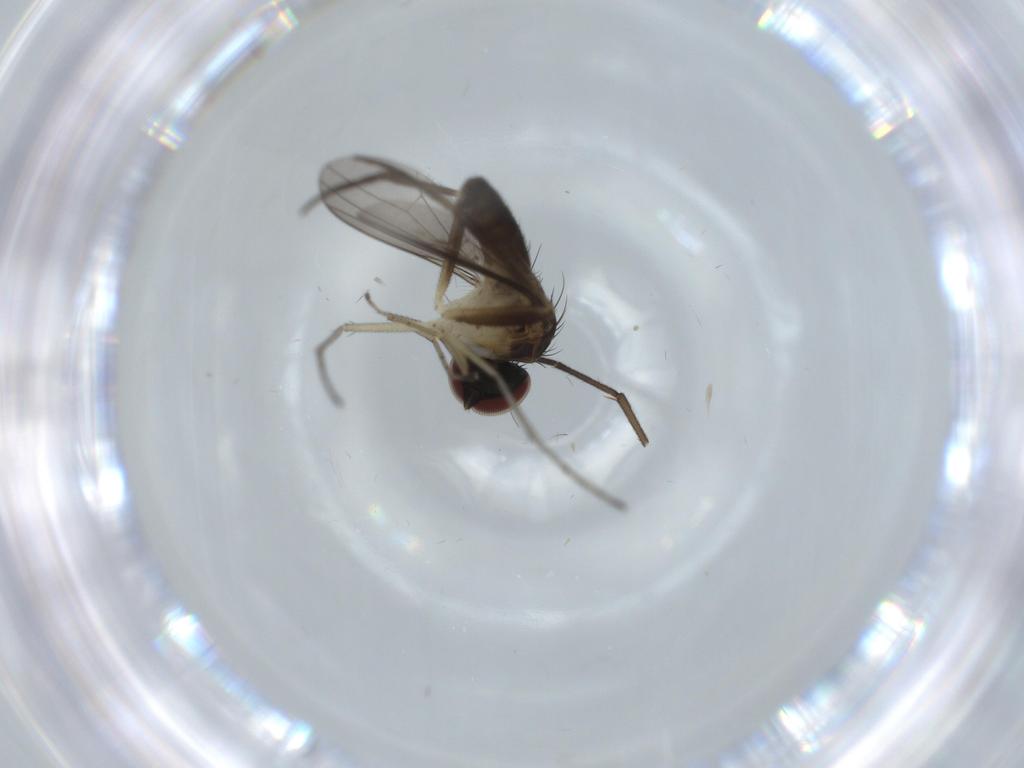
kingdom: Animalia
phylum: Arthropoda
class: Insecta
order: Diptera
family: Dolichopodidae
